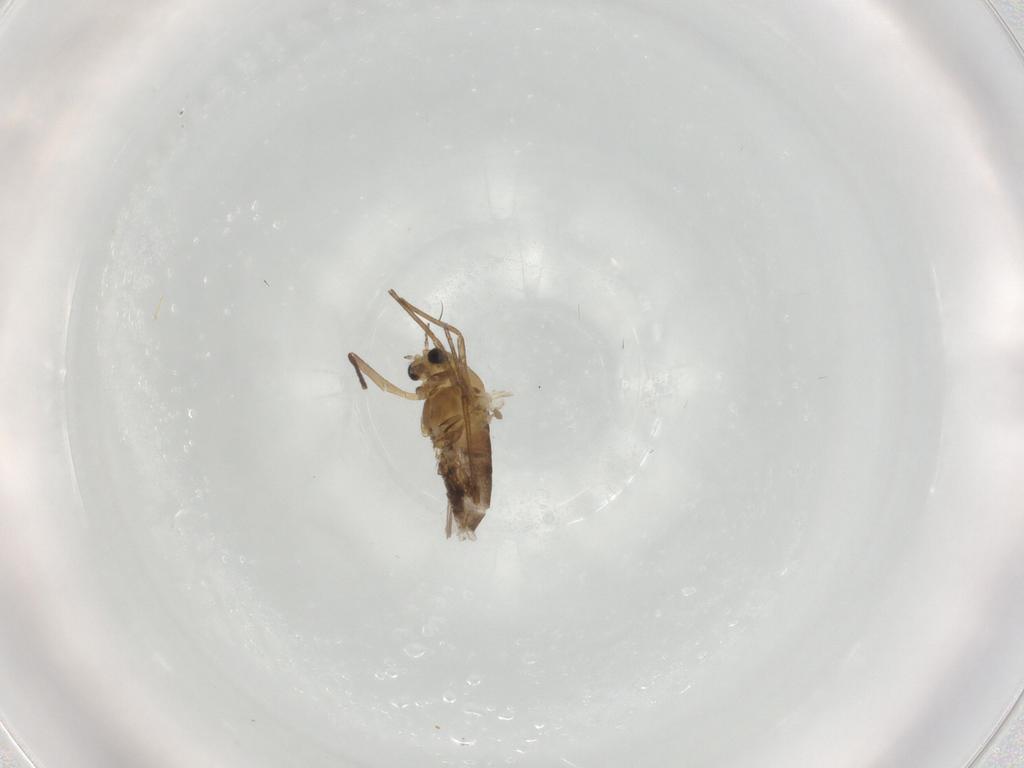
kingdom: Animalia
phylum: Arthropoda
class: Insecta
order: Diptera
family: Chironomidae
